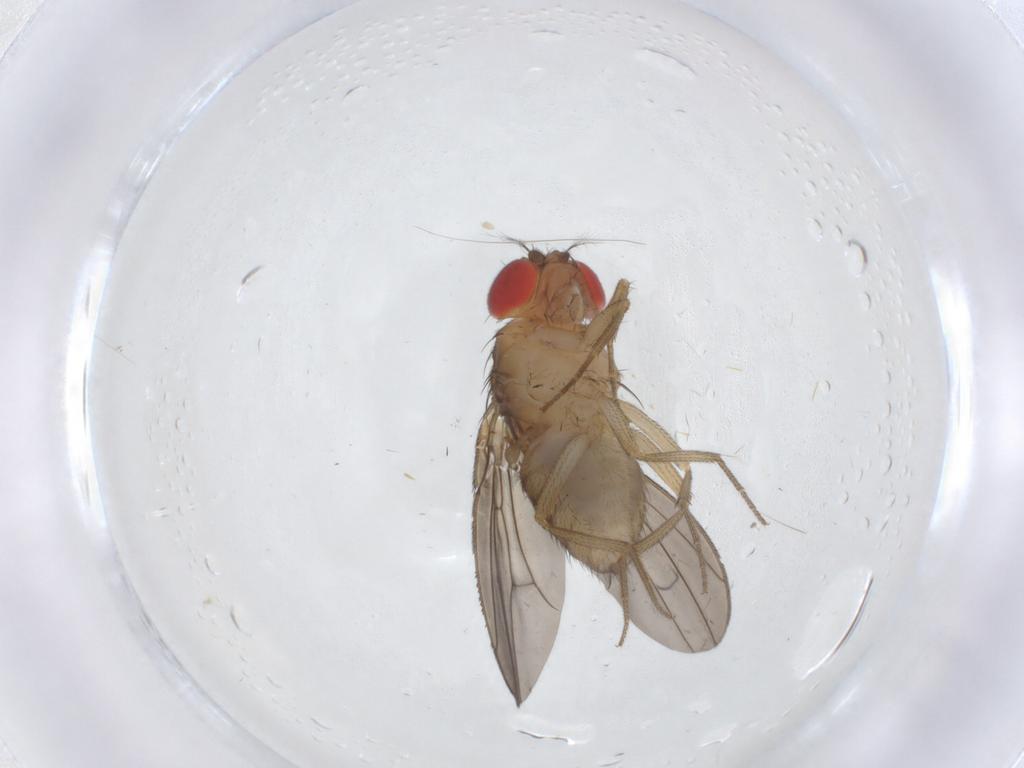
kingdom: Animalia
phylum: Arthropoda
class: Insecta
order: Diptera
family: Drosophilidae
